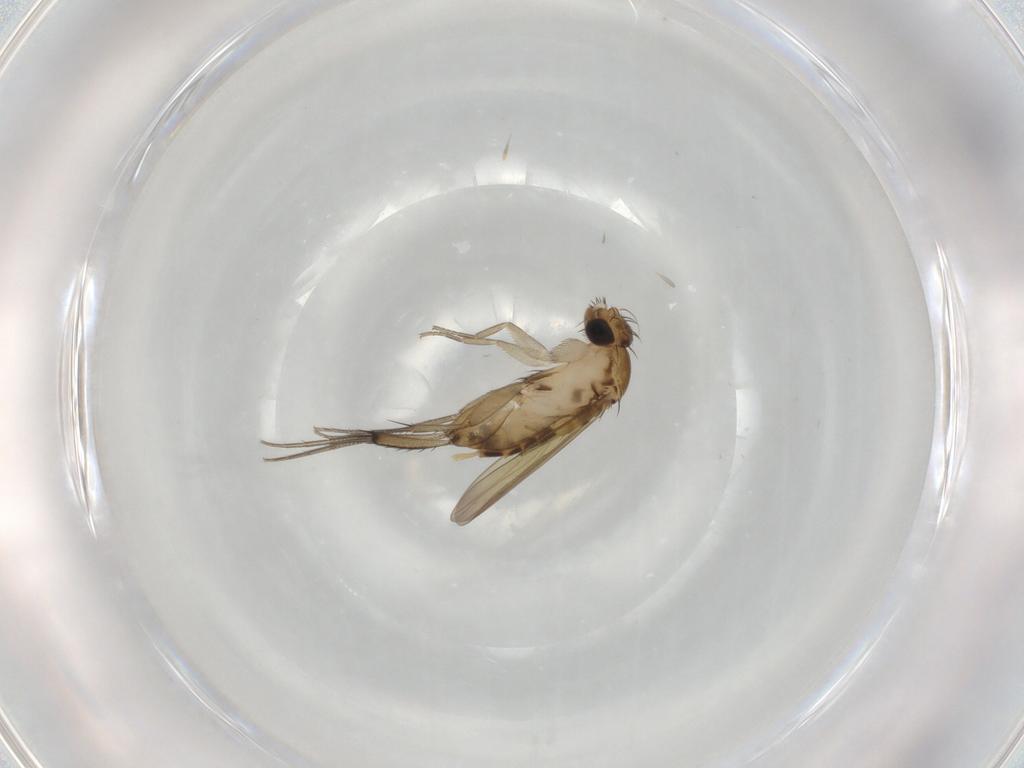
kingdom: Animalia
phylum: Arthropoda
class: Insecta
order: Diptera
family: Phoridae
